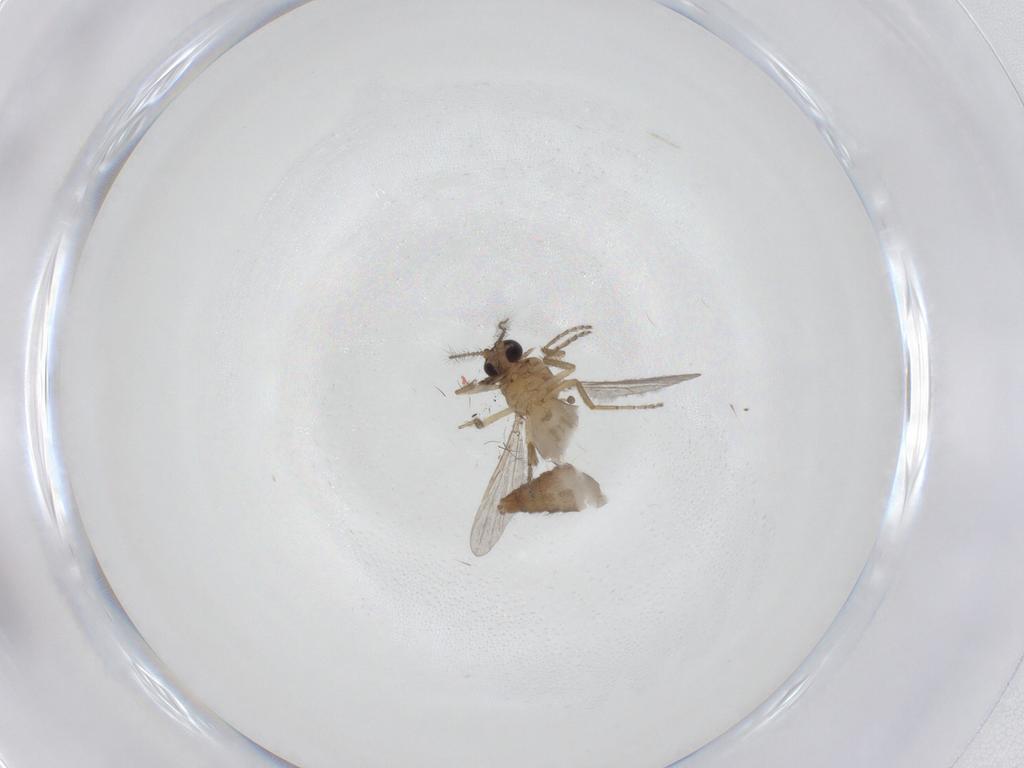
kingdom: Animalia
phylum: Arthropoda
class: Insecta
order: Diptera
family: Ceratopogonidae
